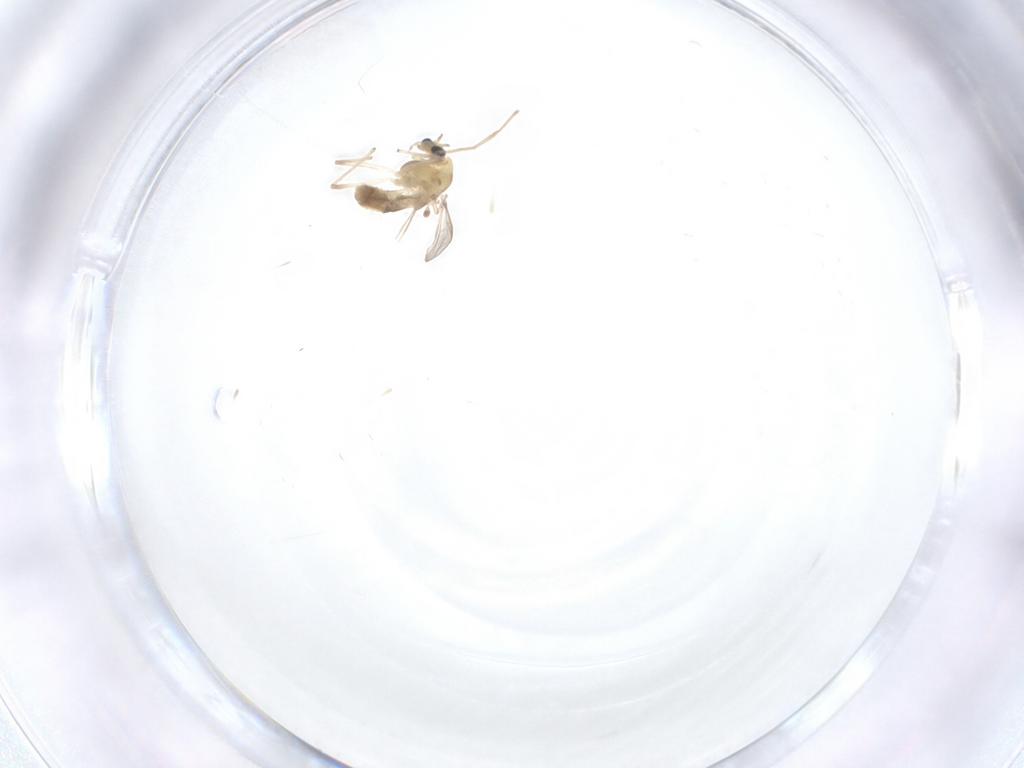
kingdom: Animalia
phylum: Arthropoda
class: Insecta
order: Diptera
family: Chironomidae
